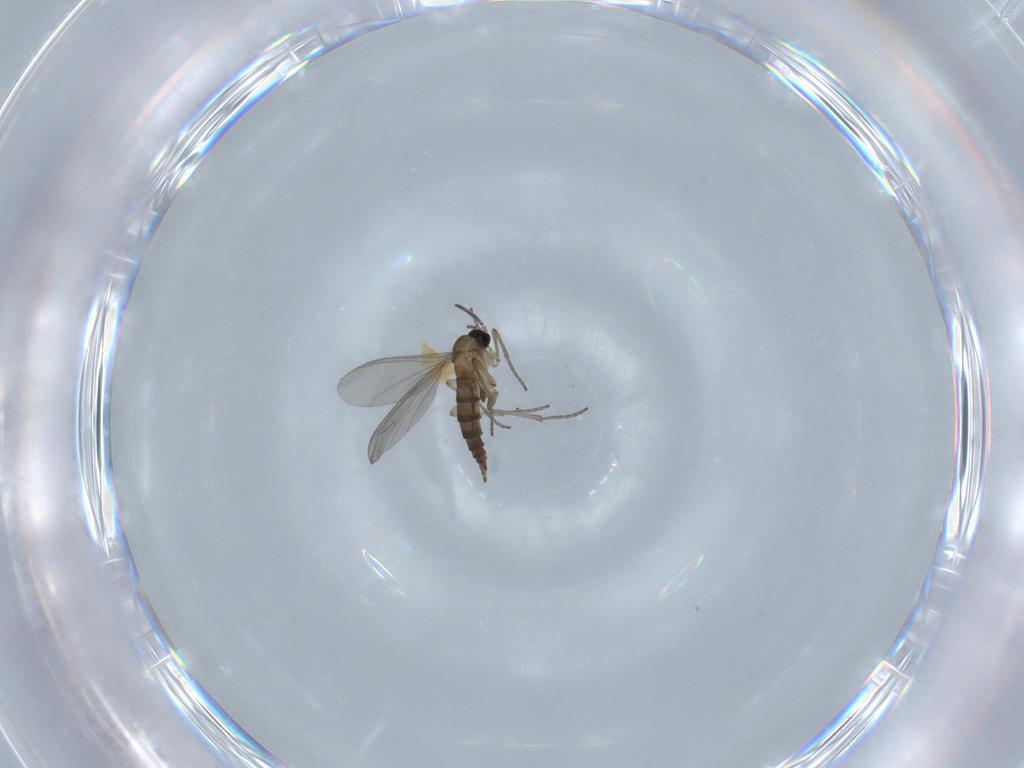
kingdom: Animalia
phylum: Arthropoda
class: Insecta
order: Diptera
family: Sciaridae
